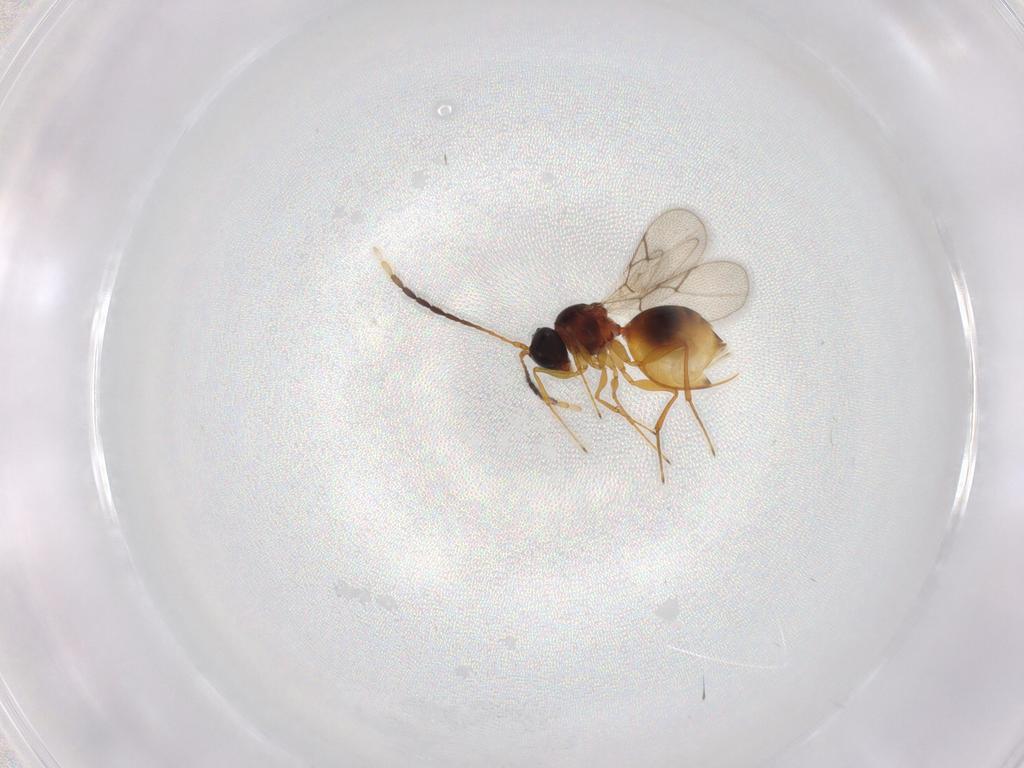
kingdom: Animalia
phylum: Arthropoda
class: Insecta
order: Hymenoptera
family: Figitidae
